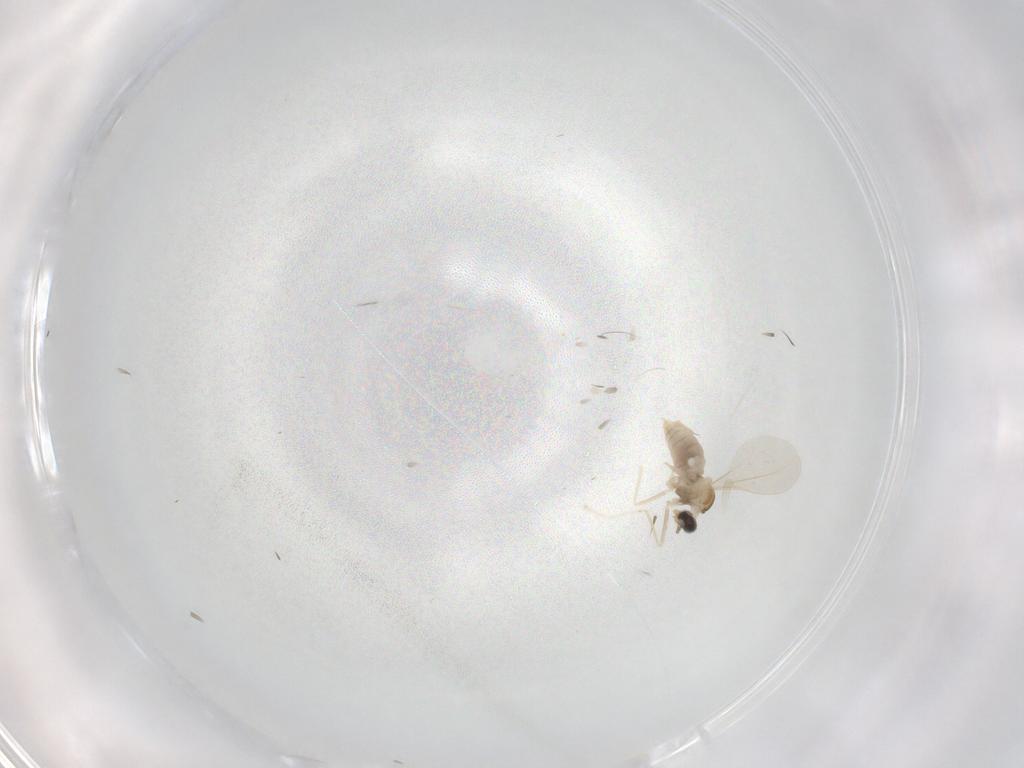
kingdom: Animalia
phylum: Arthropoda
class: Insecta
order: Diptera
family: Cecidomyiidae
